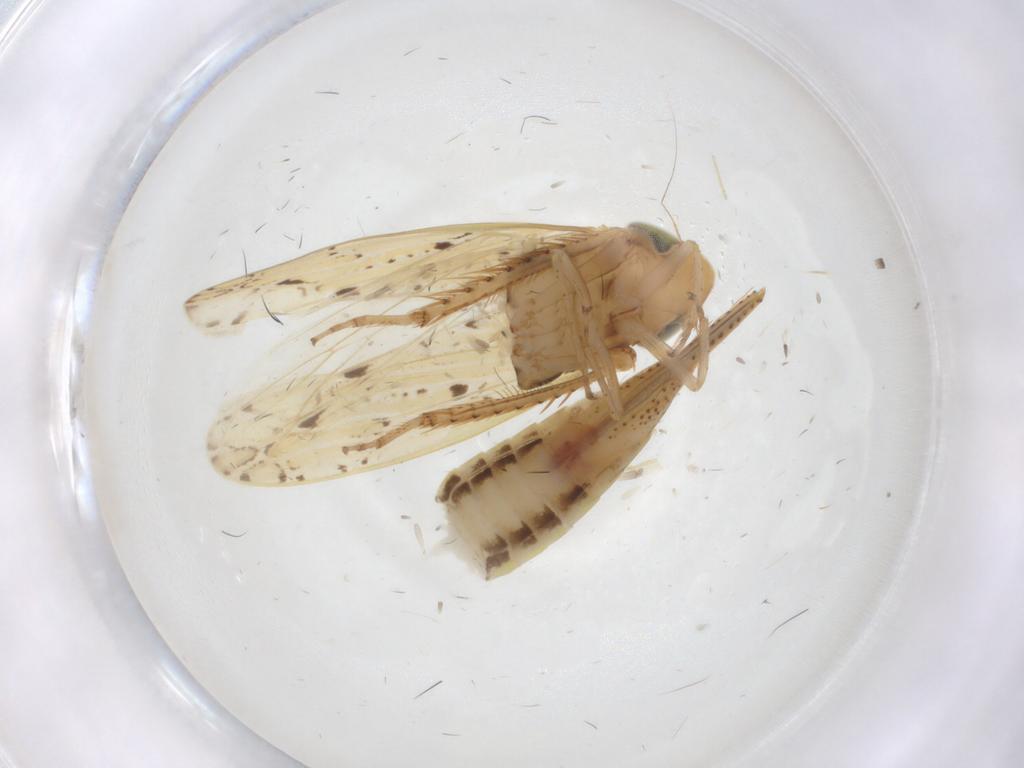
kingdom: Animalia
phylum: Arthropoda
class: Insecta
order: Hemiptera
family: Cicadellidae
